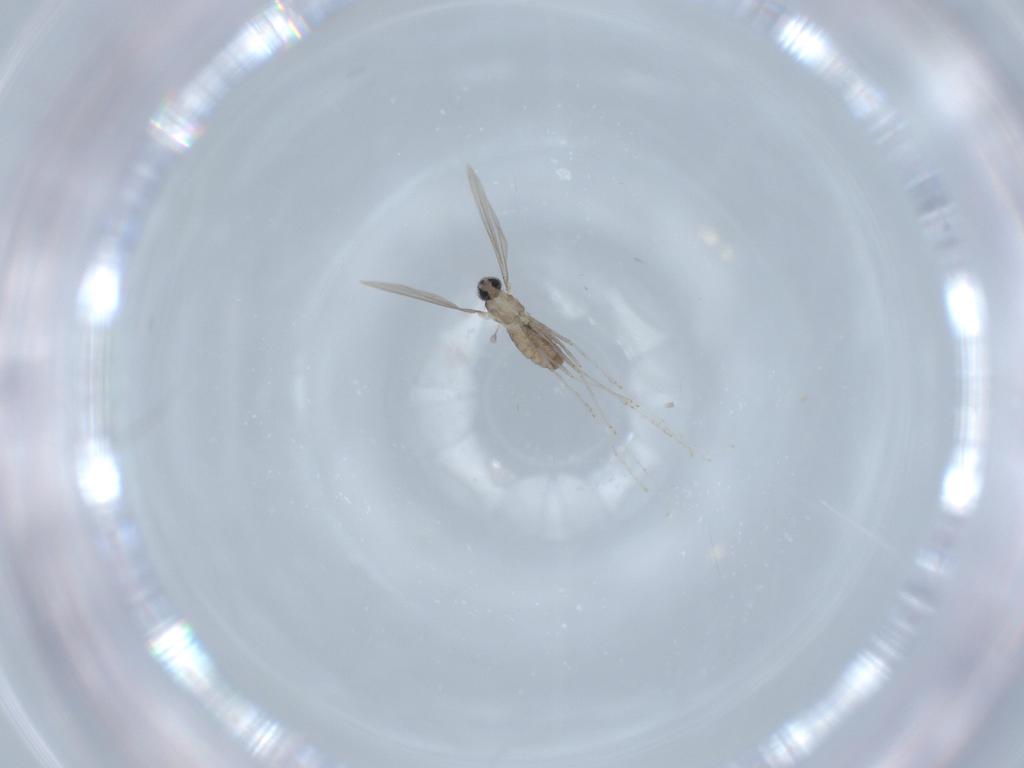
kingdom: Animalia
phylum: Arthropoda
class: Insecta
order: Diptera
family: Cecidomyiidae
